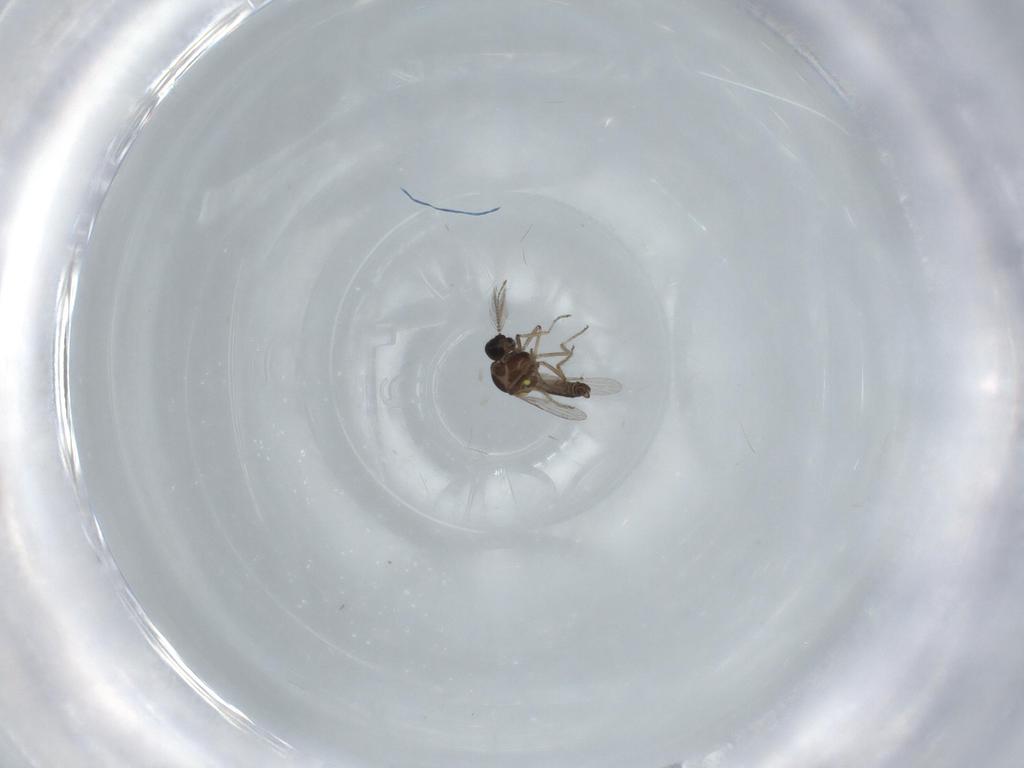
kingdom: Animalia
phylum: Arthropoda
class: Insecta
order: Diptera
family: Ceratopogonidae
